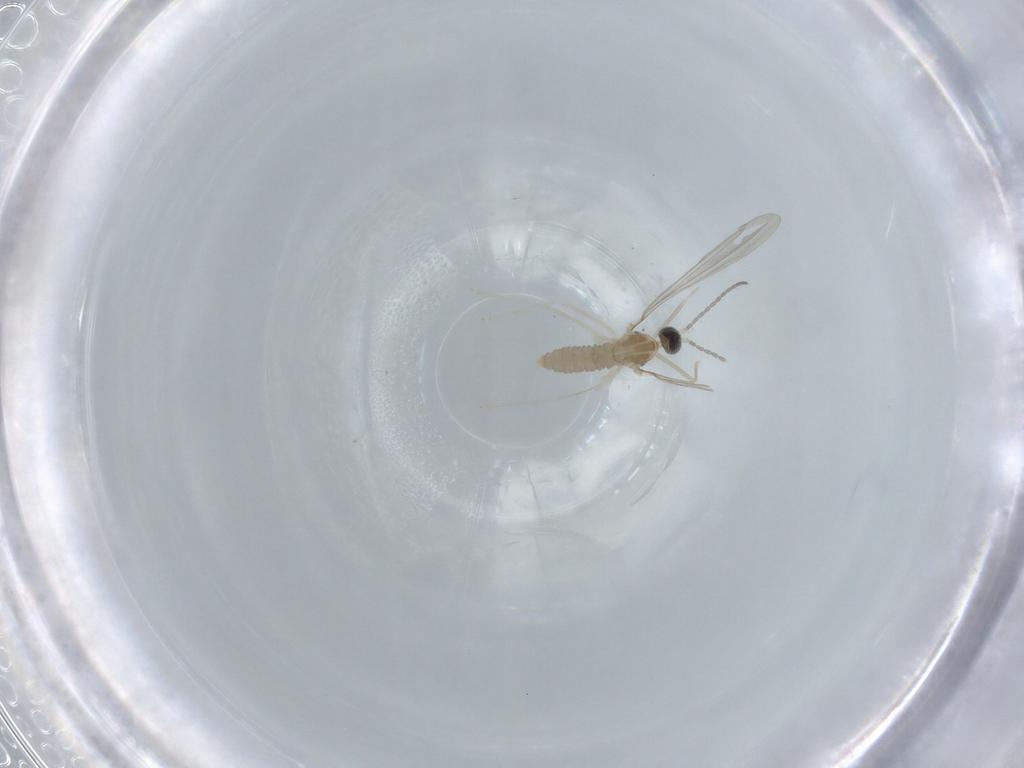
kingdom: Animalia
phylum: Arthropoda
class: Insecta
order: Diptera
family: Cecidomyiidae
